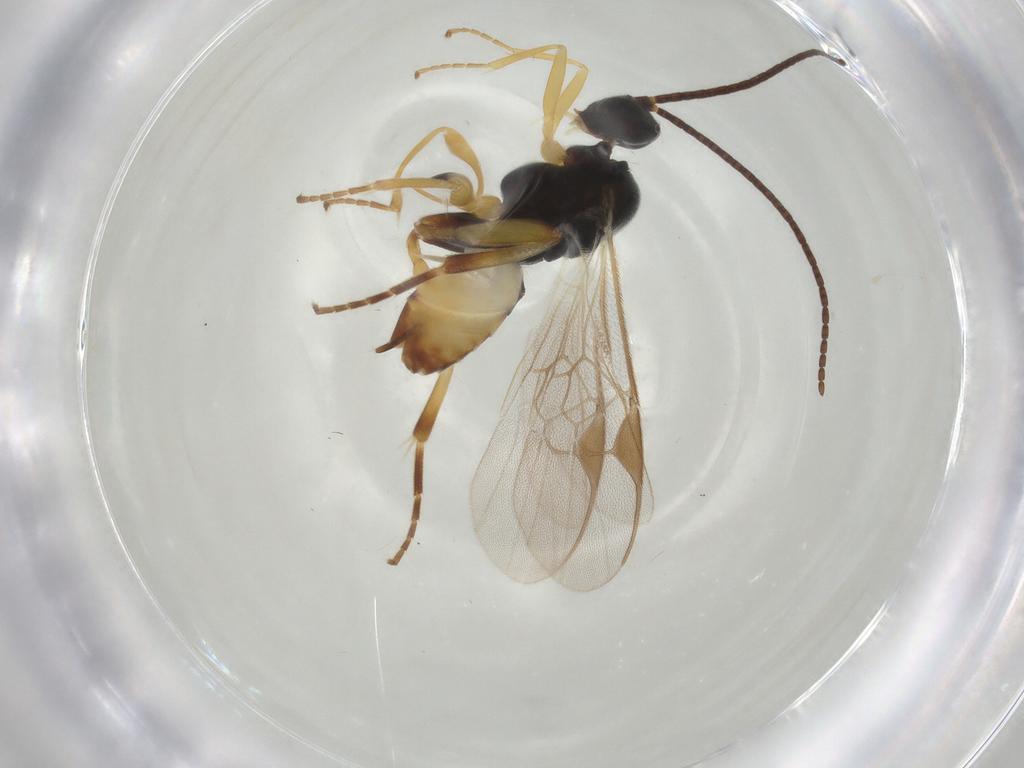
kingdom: Animalia
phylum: Arthropoda
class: Insecta
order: Hymenoptera
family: Braconidae
